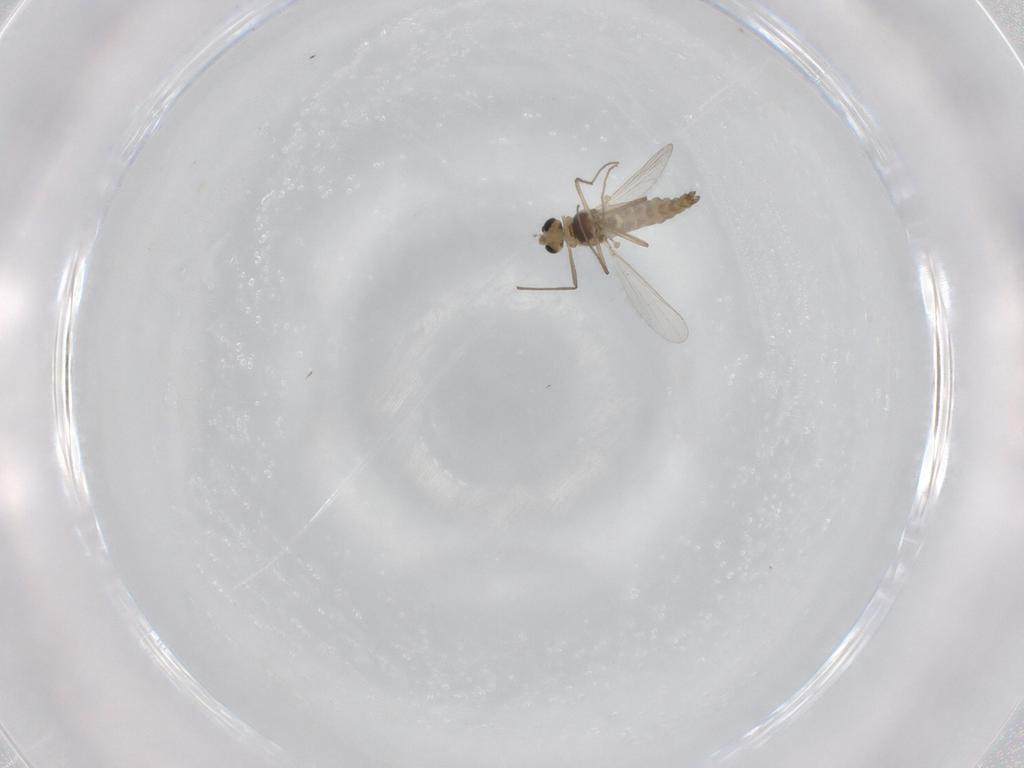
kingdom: Animalia
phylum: Arthropoda
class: Insecta
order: Diptera
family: Chironomidae
